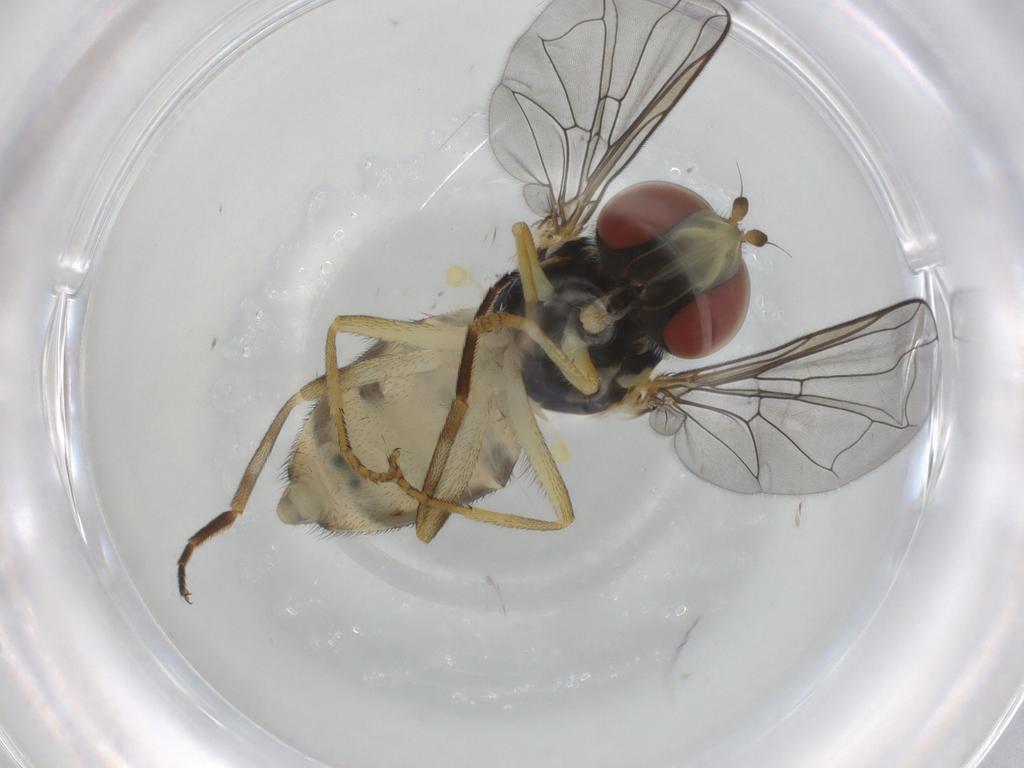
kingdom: Animalia
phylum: Arthropoda
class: Insecta
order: Diptera
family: Syrphidae
